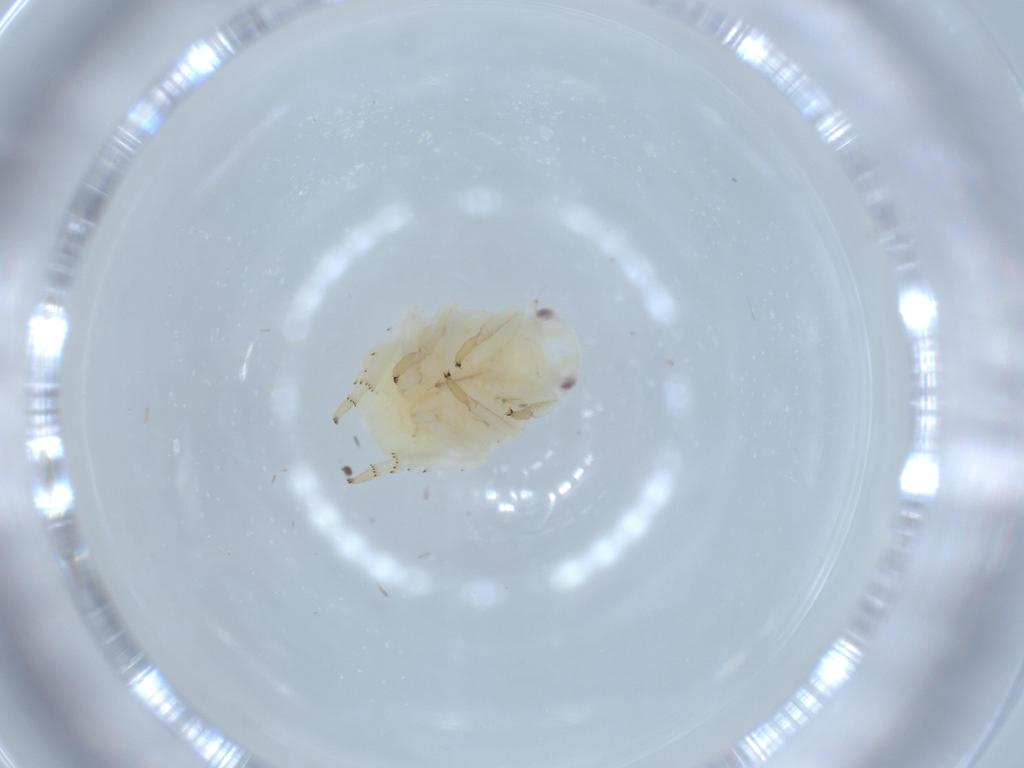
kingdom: Animalia
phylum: Arthropoda
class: Insecta
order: Hemiptera
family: Flatidae
